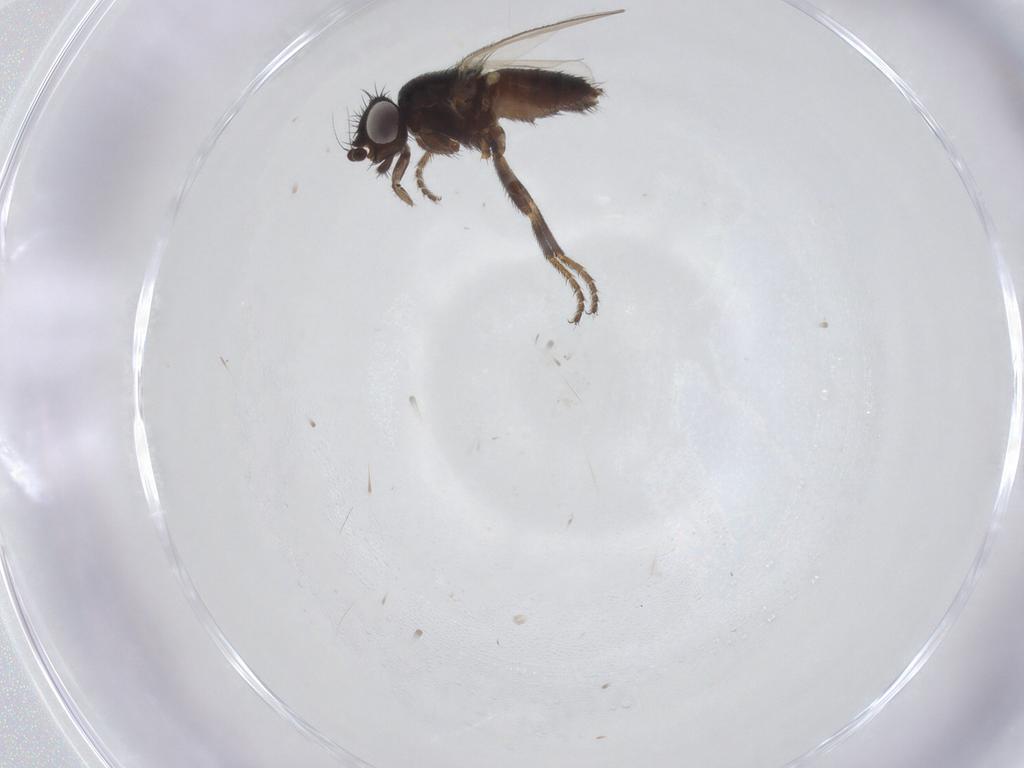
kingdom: Animalia
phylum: Arthropoda
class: Insecta
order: Diptera
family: Milichiidae
